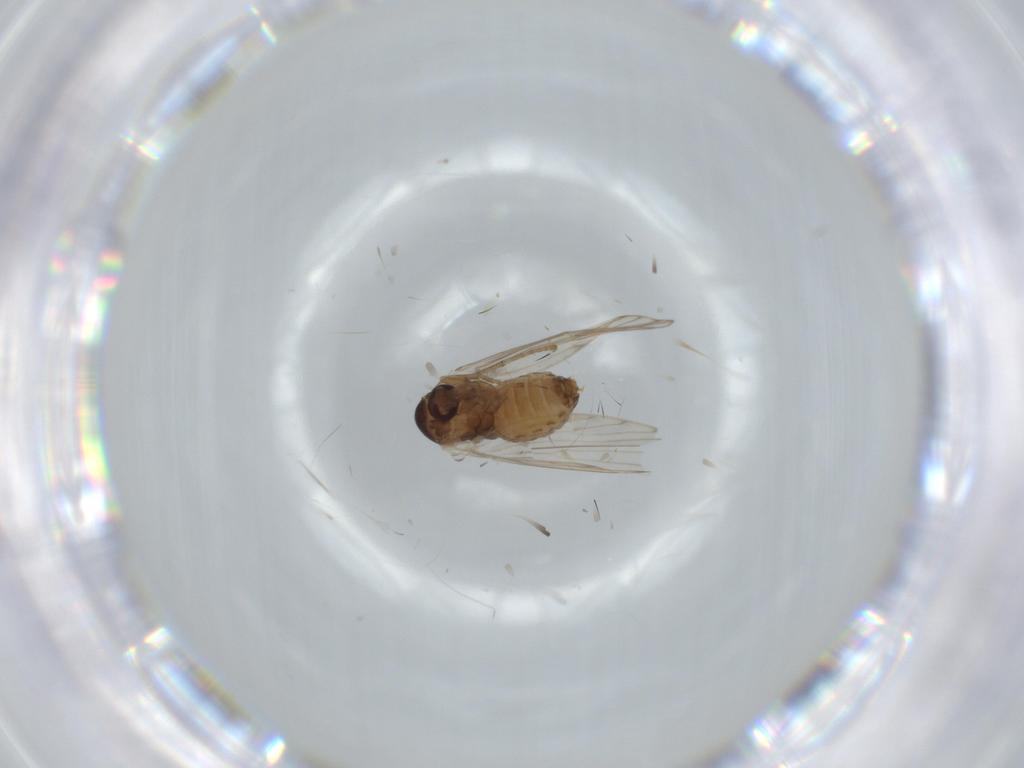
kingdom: Animalia
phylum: Arthropoda
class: Insecta
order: Diptera
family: Psychodidae
